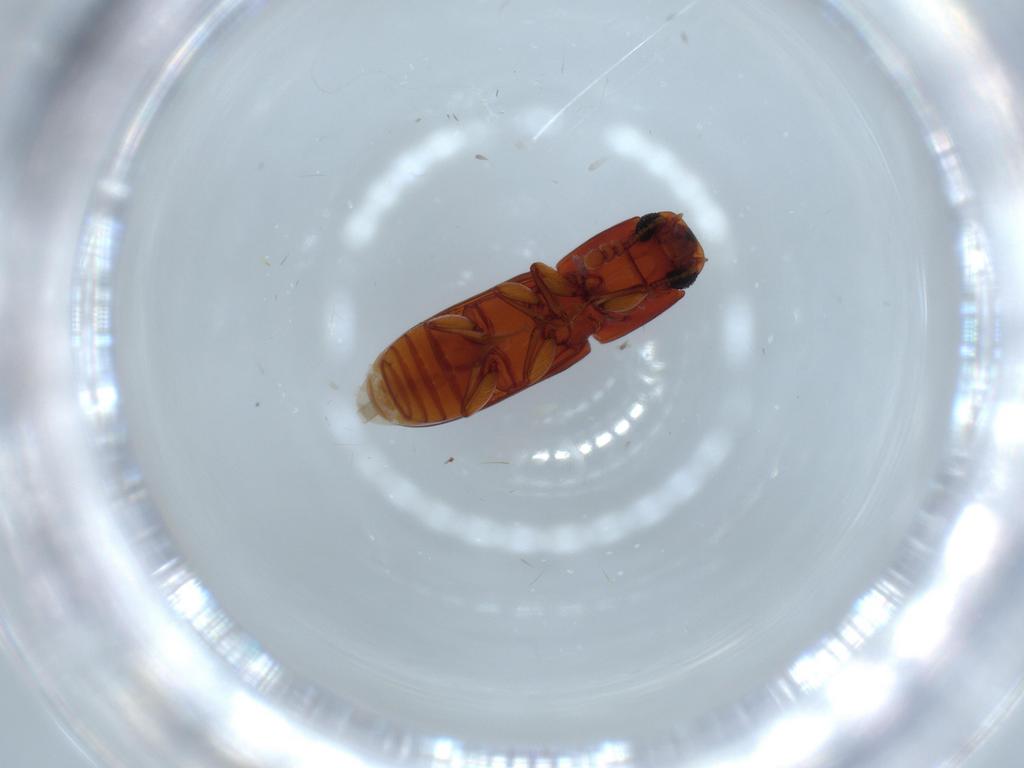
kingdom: Animalia
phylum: Arthropoda
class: Insecta
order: Coleoptera
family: Zopheridae
